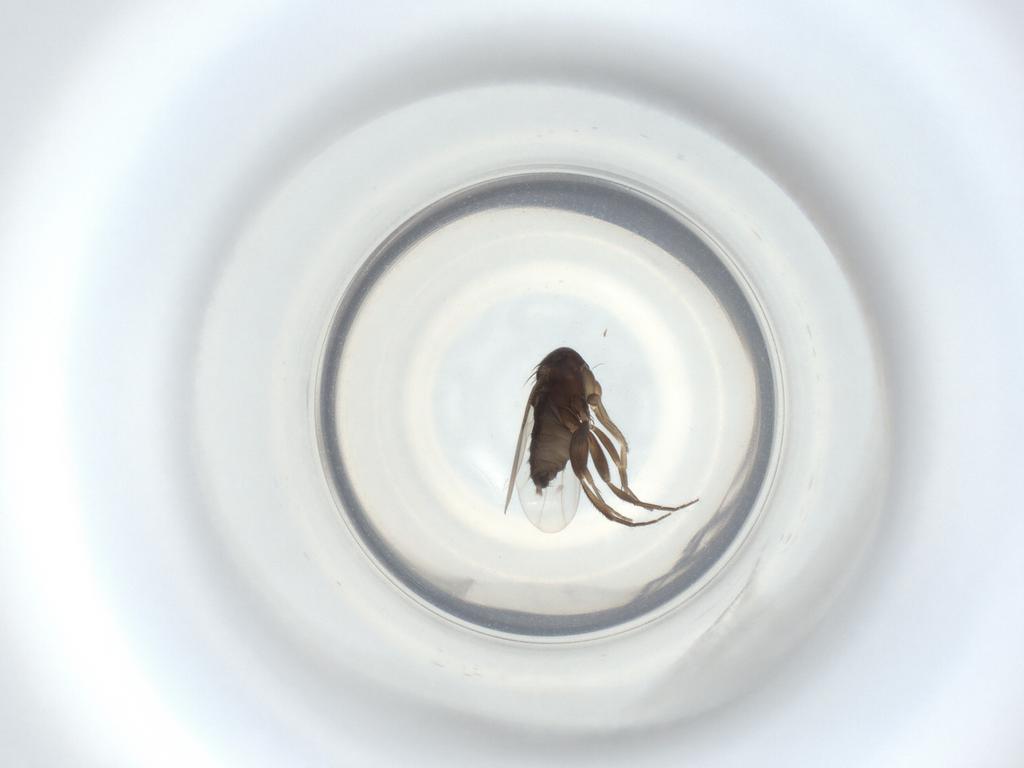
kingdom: Animalia
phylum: Arthropoda
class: Insecta
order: Diptera
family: Phoridae
